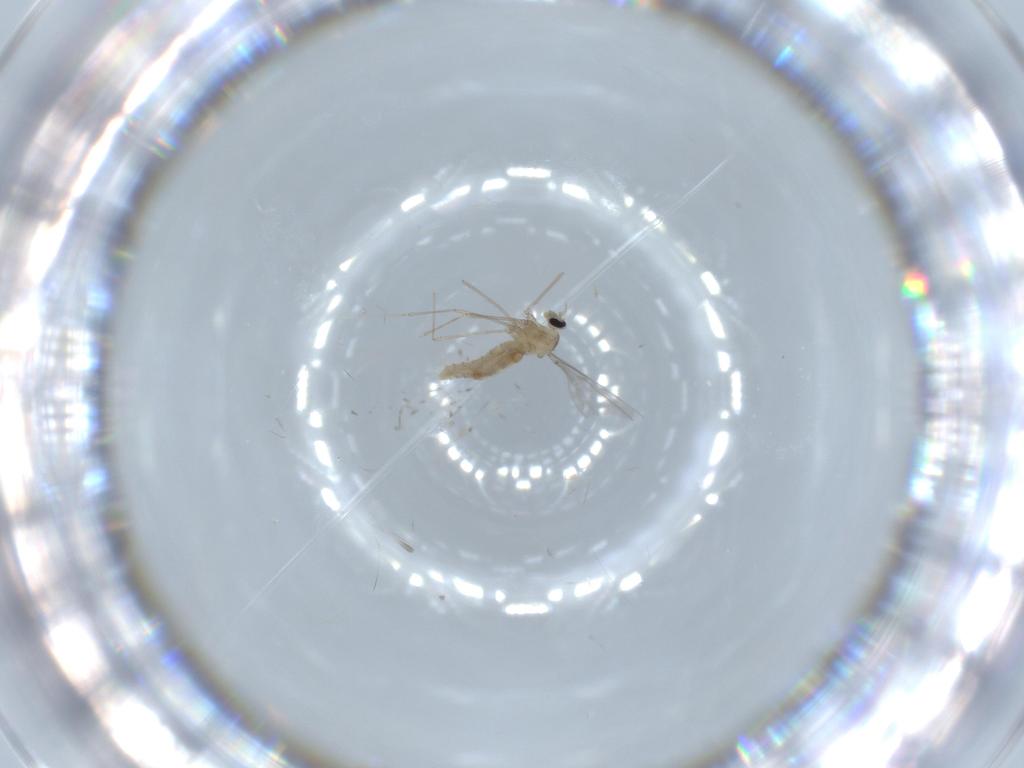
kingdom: Animalia
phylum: Arthropoda
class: Insecta
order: Diptera
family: Cecidomyiidae
